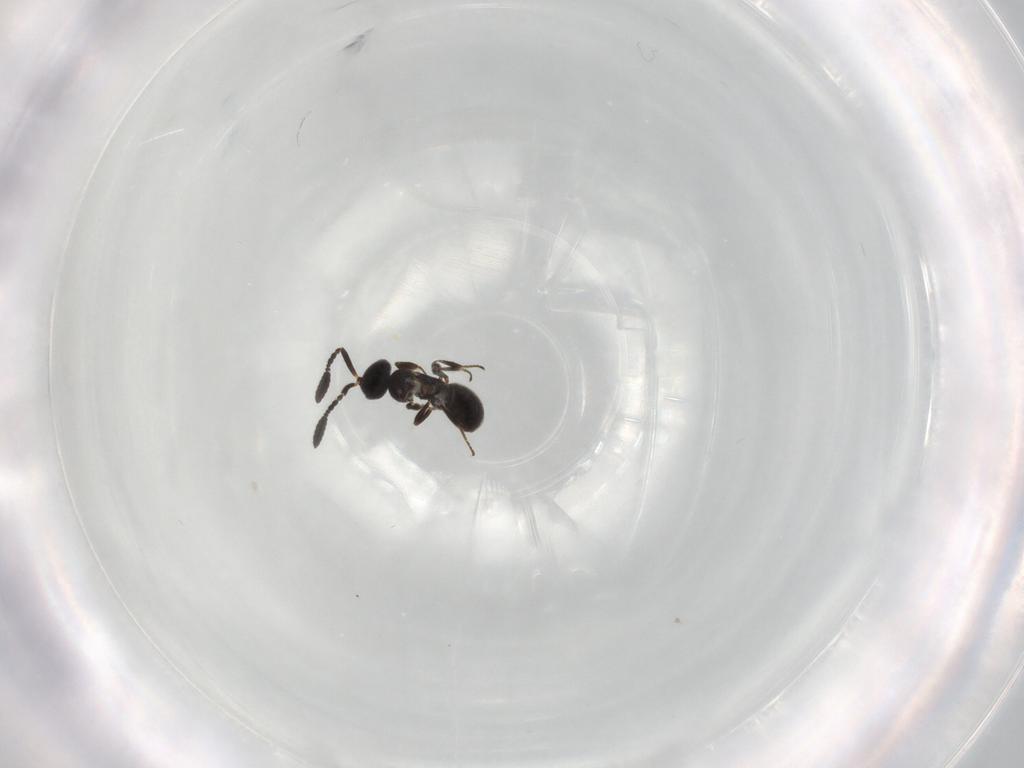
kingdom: Animalia
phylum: Arthropoda
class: Insecta
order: Hymenoptera
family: Scelionidae
